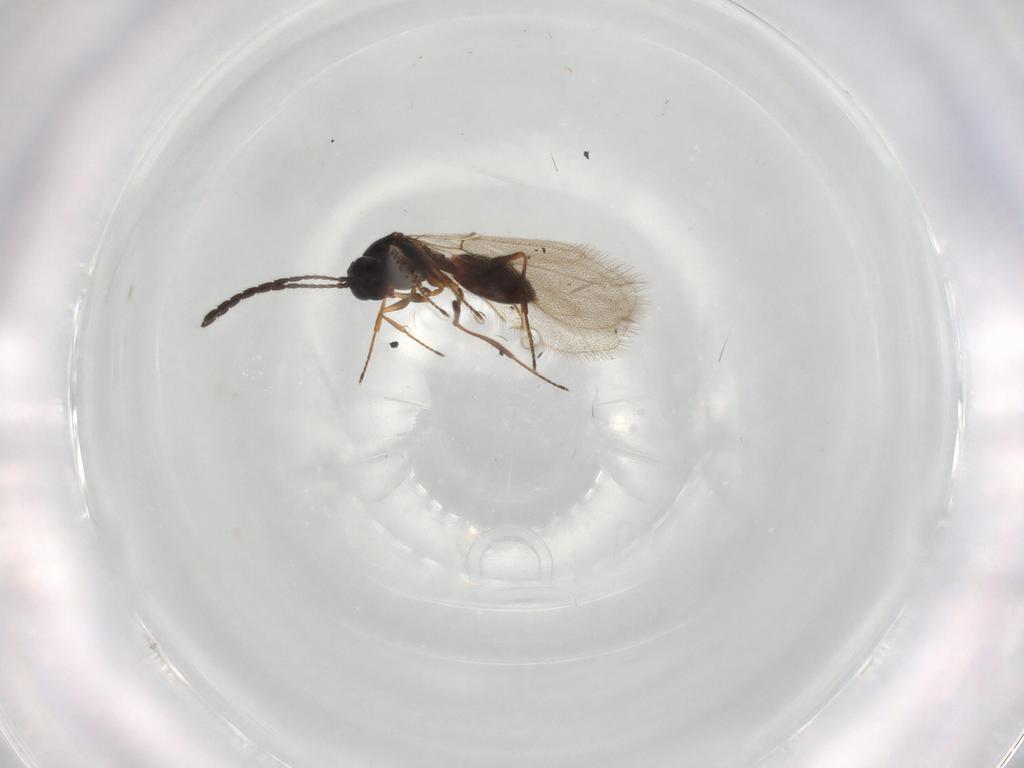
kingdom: Animalia
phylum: Arthropoda
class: Insecta
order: Hymenoptera
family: Figitidae
